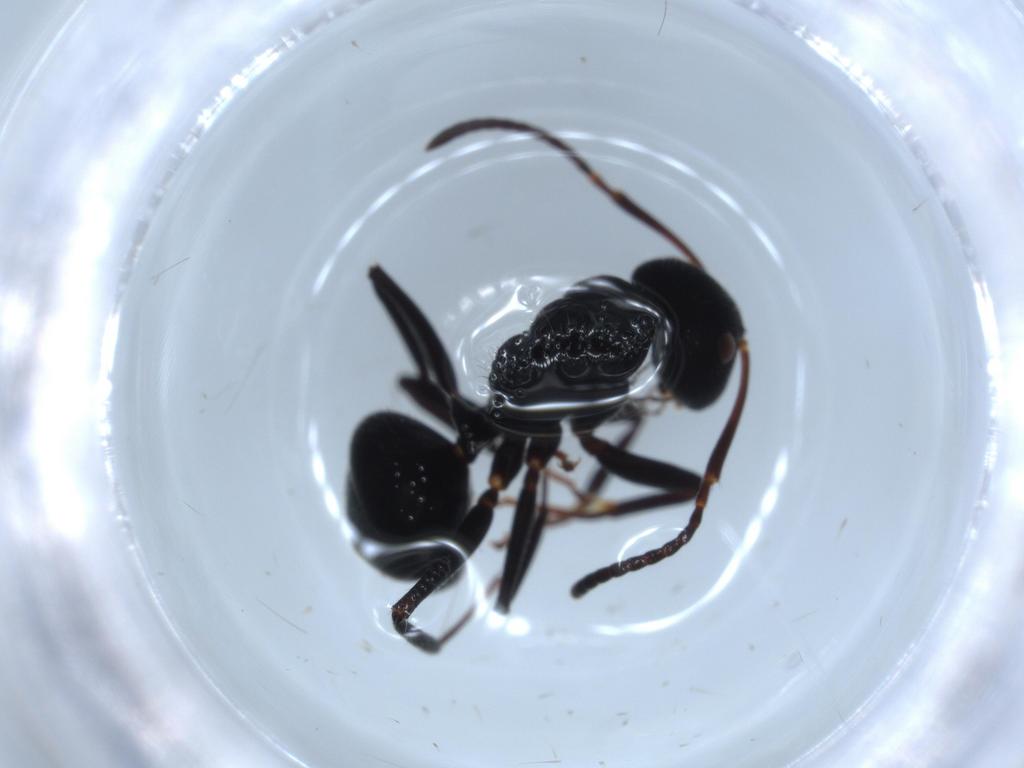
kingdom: Animalia
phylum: Arthropoda
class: Insecta
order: Hymenoptera
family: Formicidae
